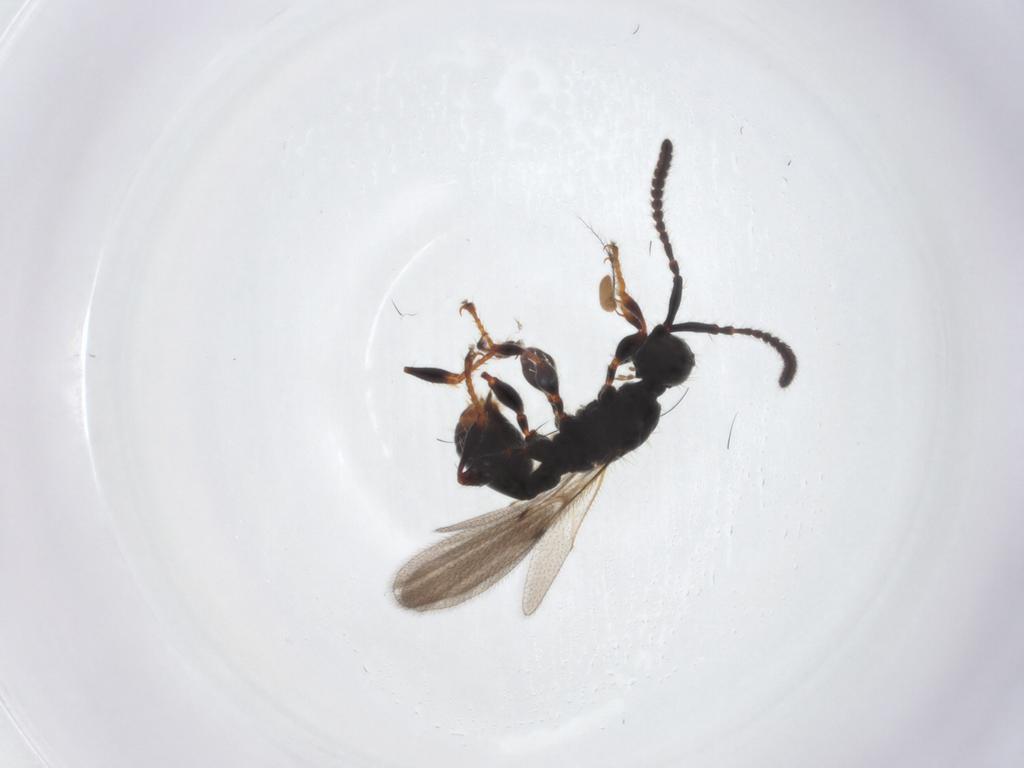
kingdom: Animalia
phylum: Arthropoda
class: Insecta
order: Hymenoptera
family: Diapriidae
